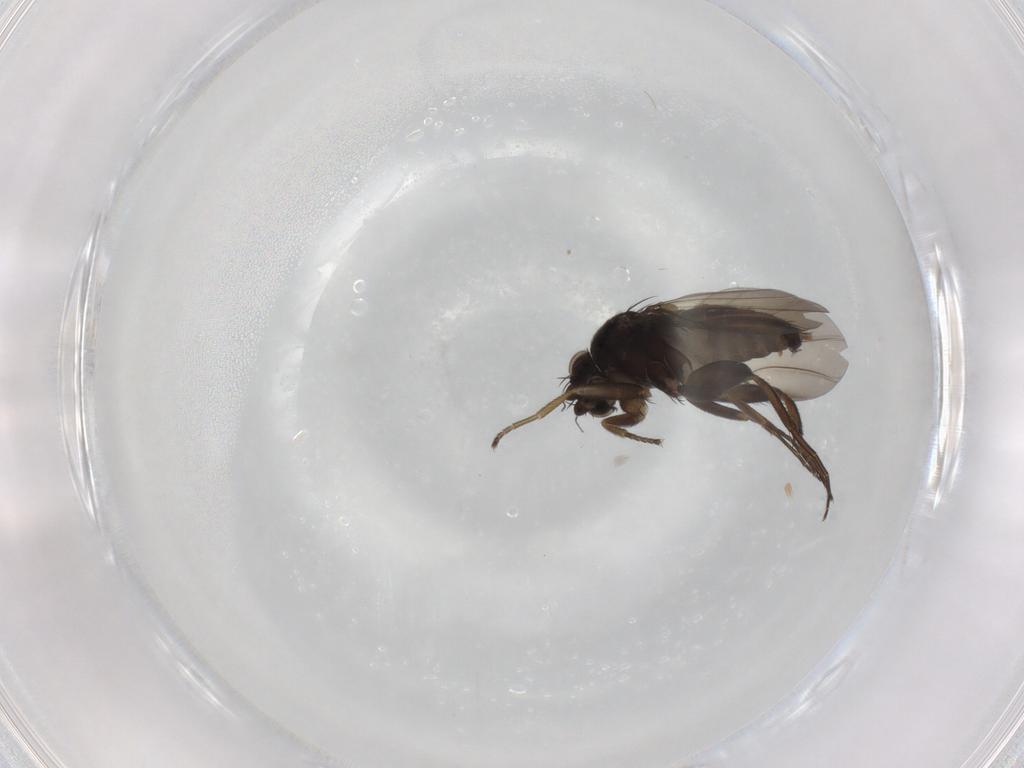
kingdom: Animalia
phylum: Arthropoda
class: Insecta
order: Diptera
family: Phoridae
